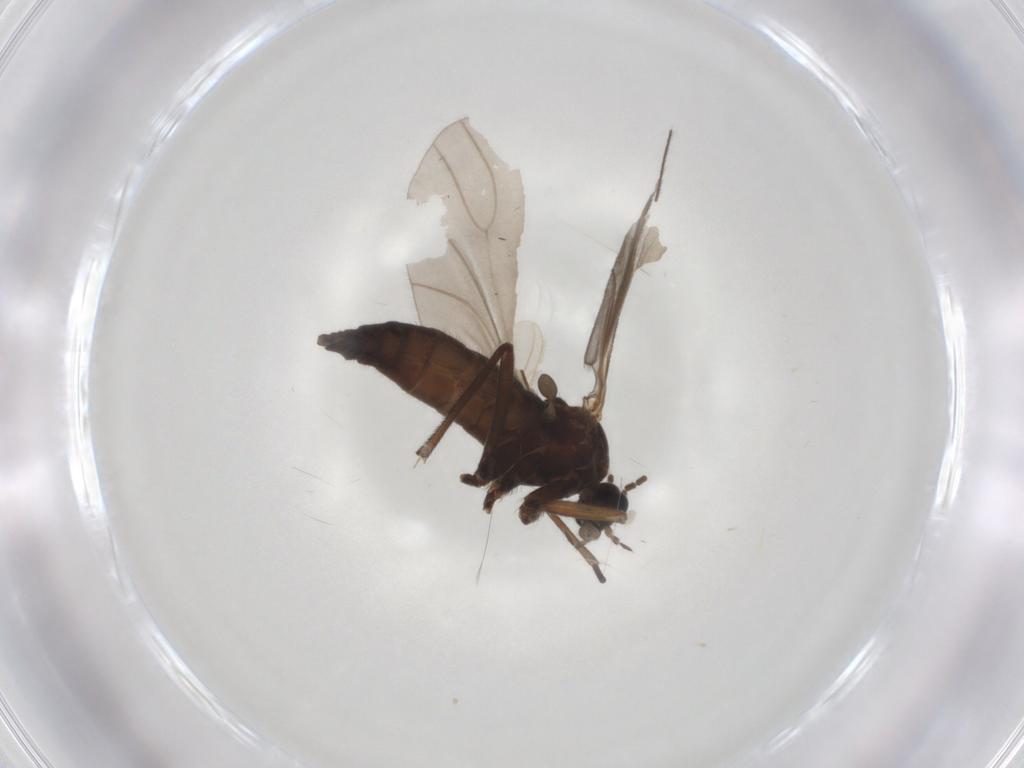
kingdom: Animalia
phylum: Arthropoda
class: Insecta
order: Diptera
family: Sciaridae
